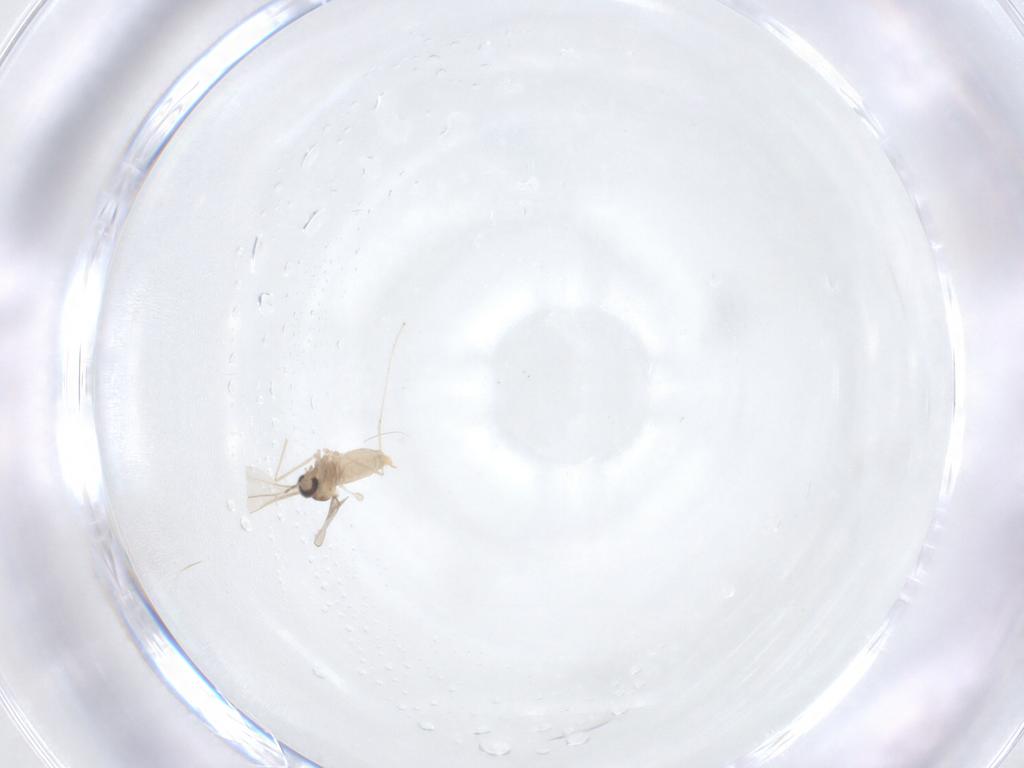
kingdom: Animalia
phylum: Arthropoda
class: Insecta
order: Diptera
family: Cecidomyiidae
